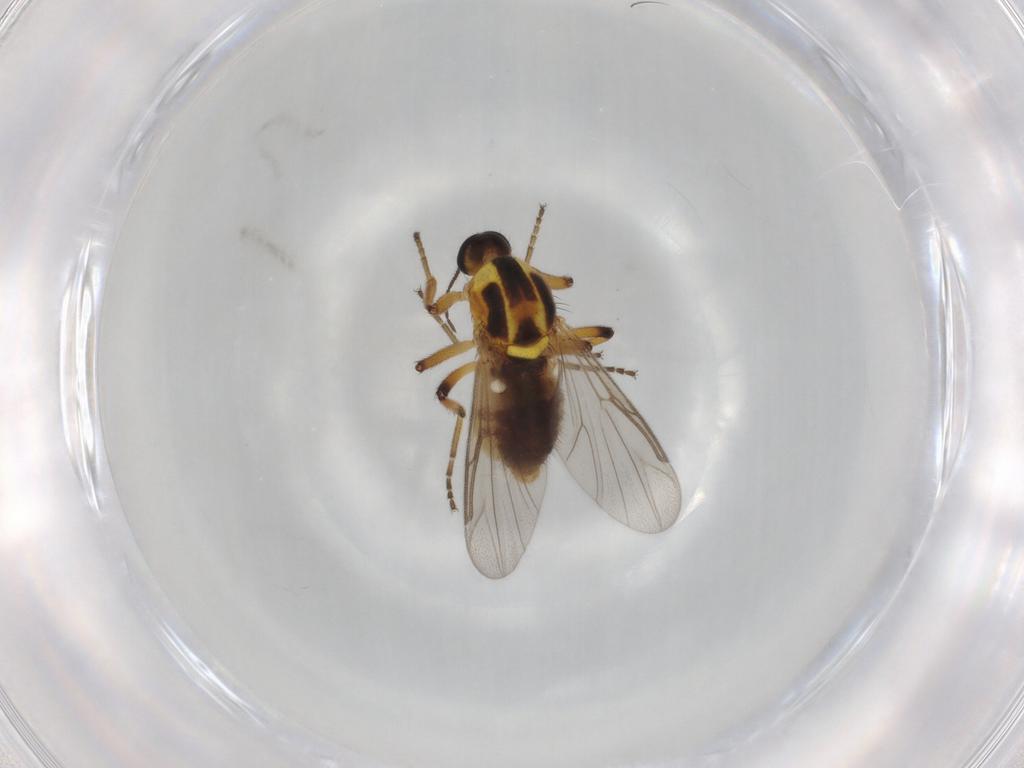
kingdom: Animalia
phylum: Arthropoda
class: Insecta
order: Diptera
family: Ceratopogonidae
